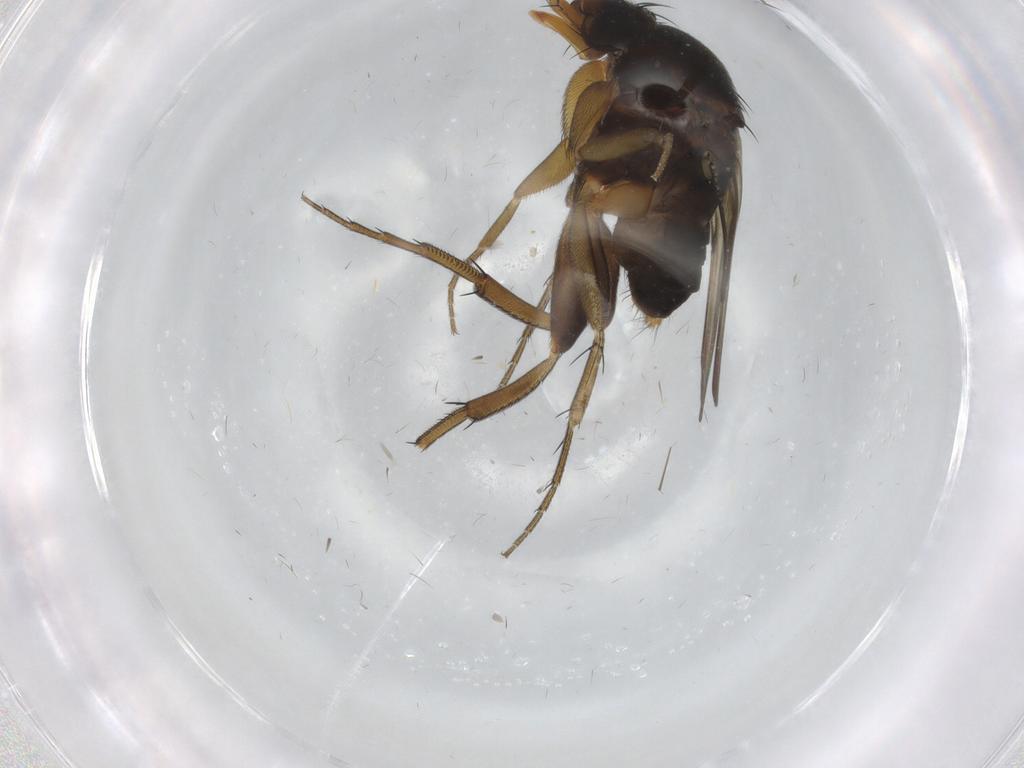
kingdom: Animalia
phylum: Arthropoda
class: Insecta
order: Diptera
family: Phoridae
